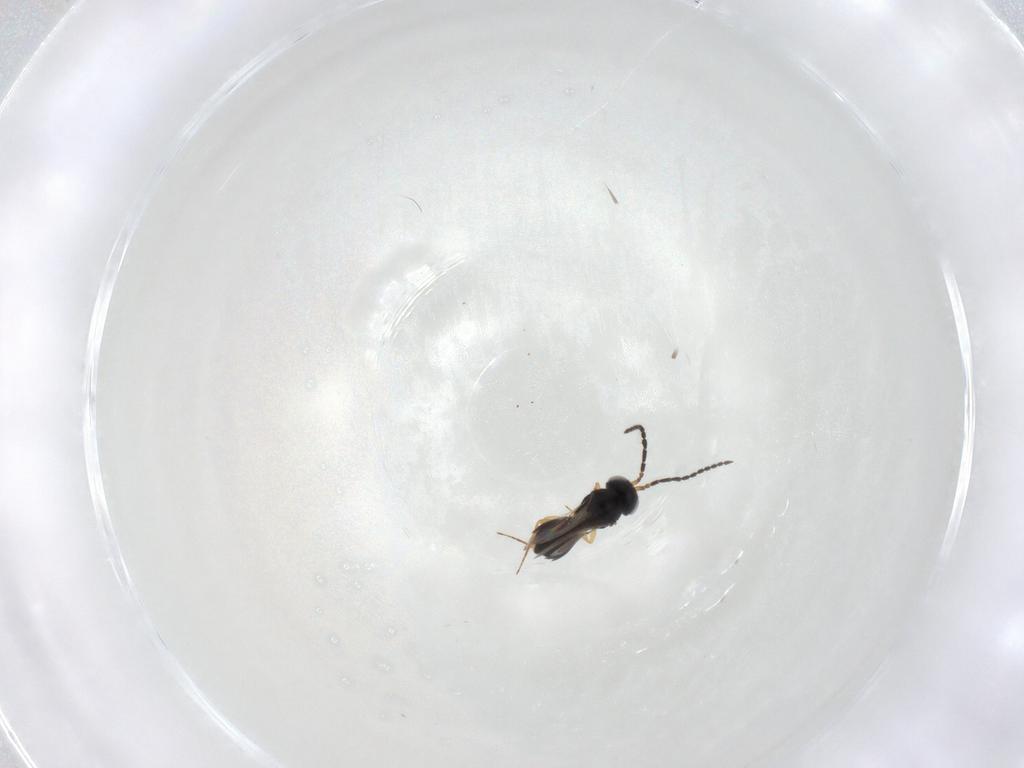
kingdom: Animalia
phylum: Arthropoda
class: Insecta
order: Hymenoptera
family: Scelionidae
